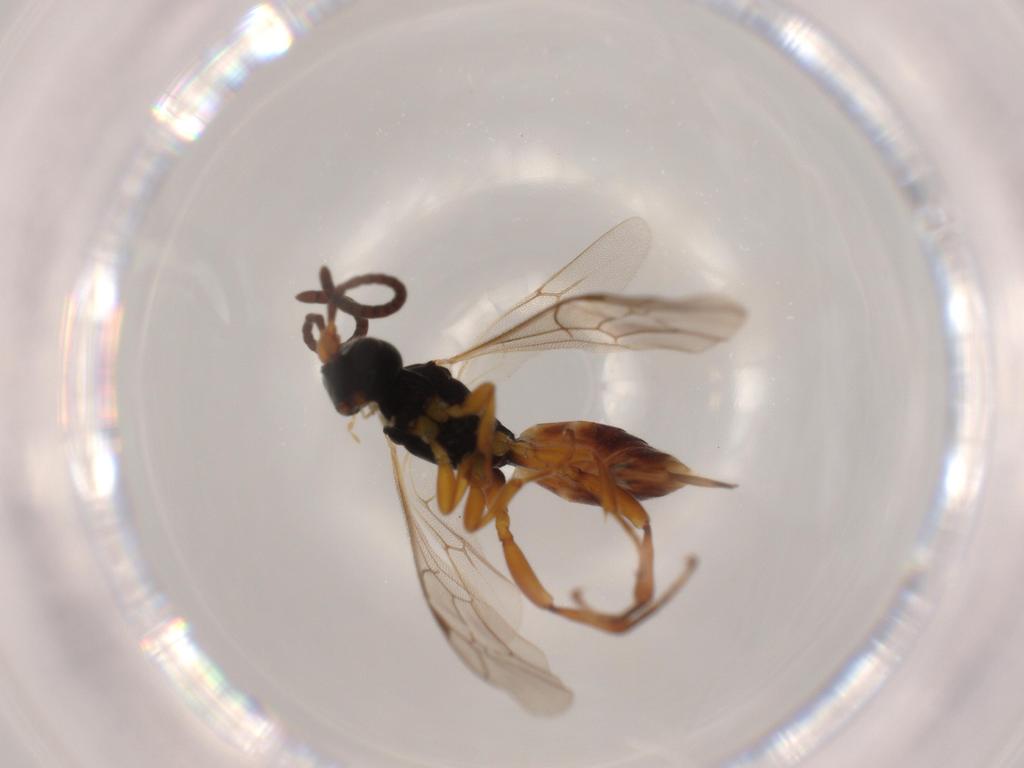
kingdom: Animalia
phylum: Arthropoda
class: Insecta
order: Hymenoptera
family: Ichneumonidae
